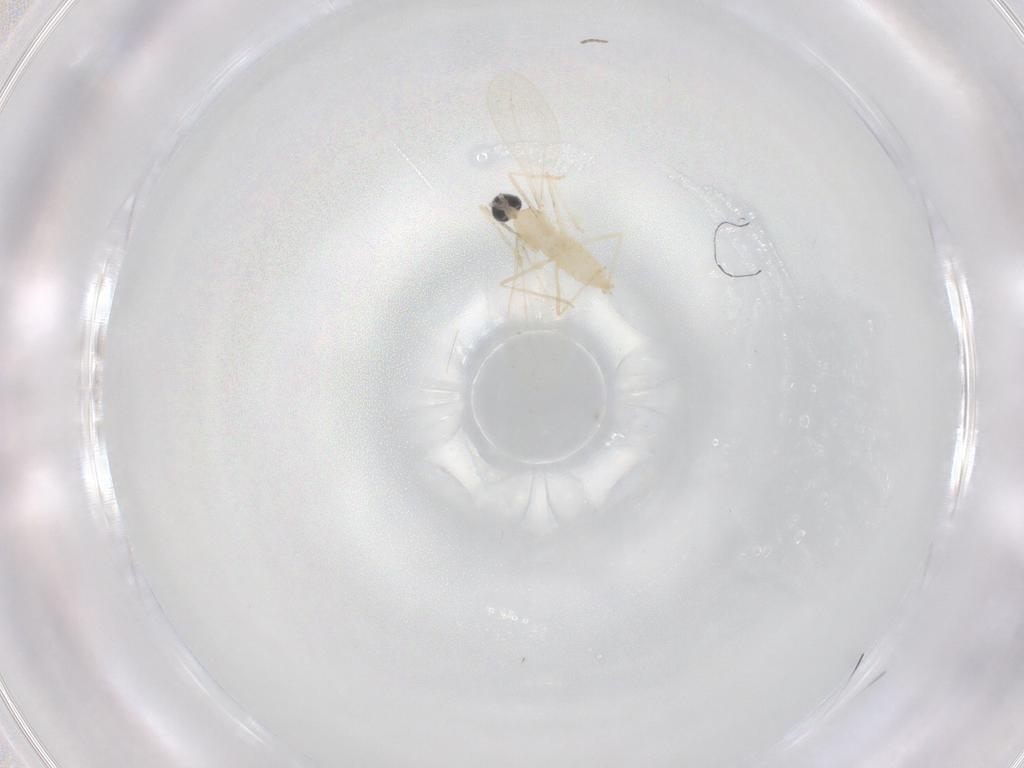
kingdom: Animalia
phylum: Arthropoda
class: Insecta
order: Diptera
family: Cecidomyiidae
